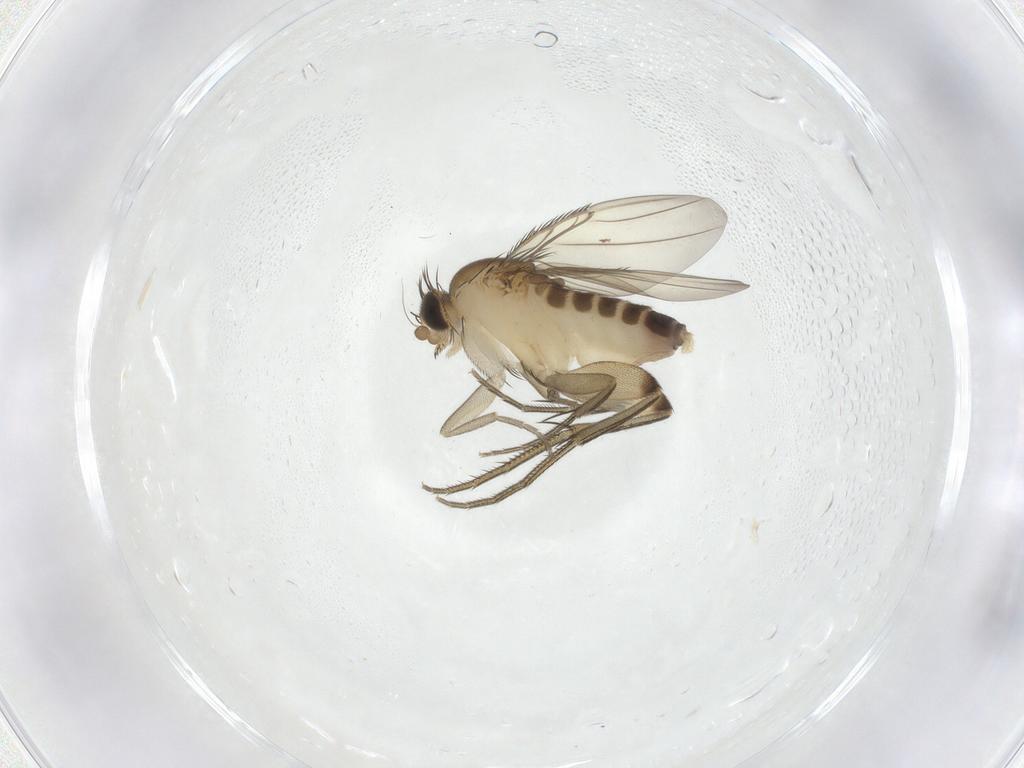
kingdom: Animalia
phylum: Arthropoda
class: Insecta
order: Diptera
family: Phoridae
